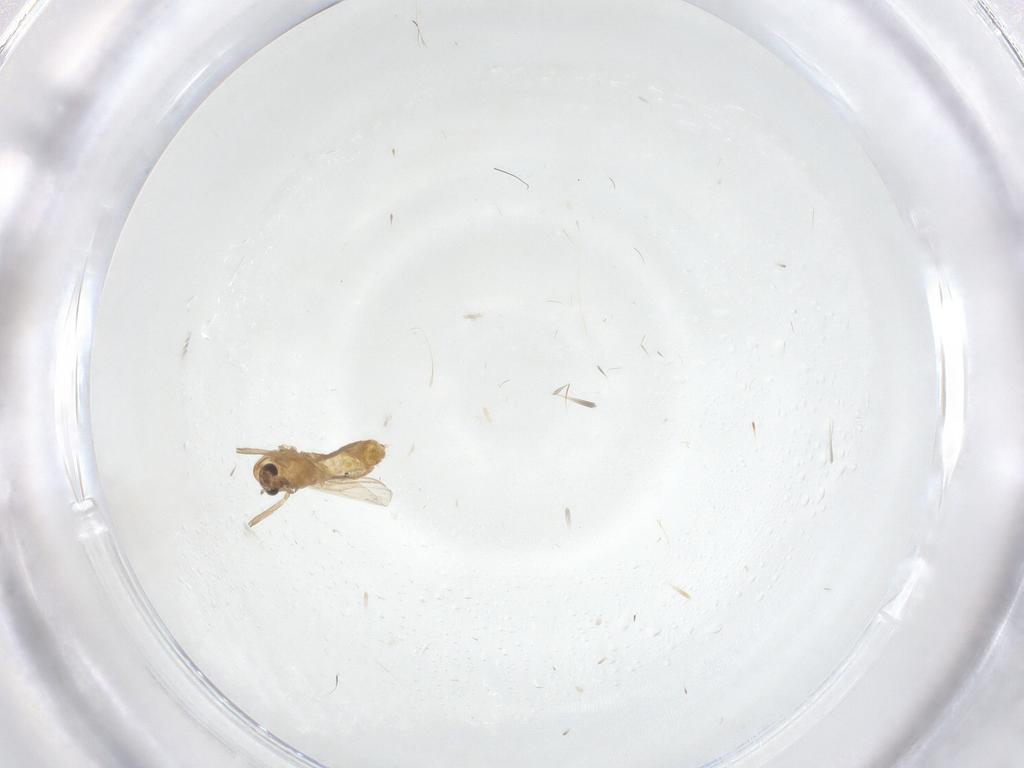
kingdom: Animalia
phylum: Arthropoda
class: Insecta
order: Diptera
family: Chironomidae
